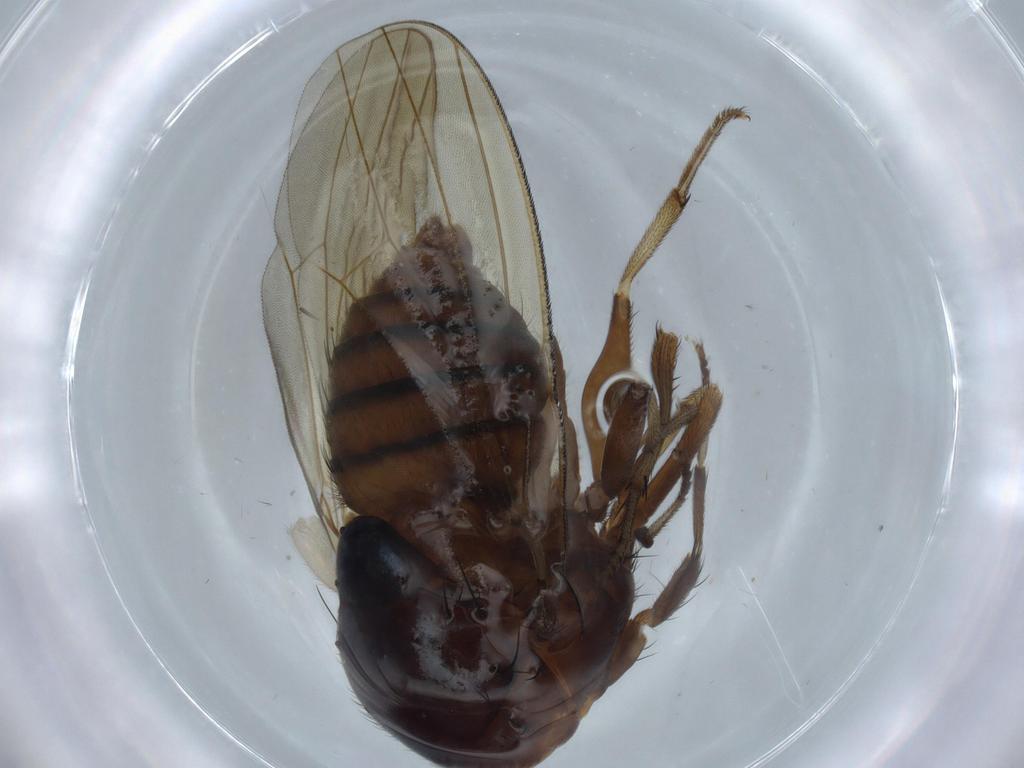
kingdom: Animalia
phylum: Arthropoda
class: Insecta
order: Diptera
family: Lauxaniidae
